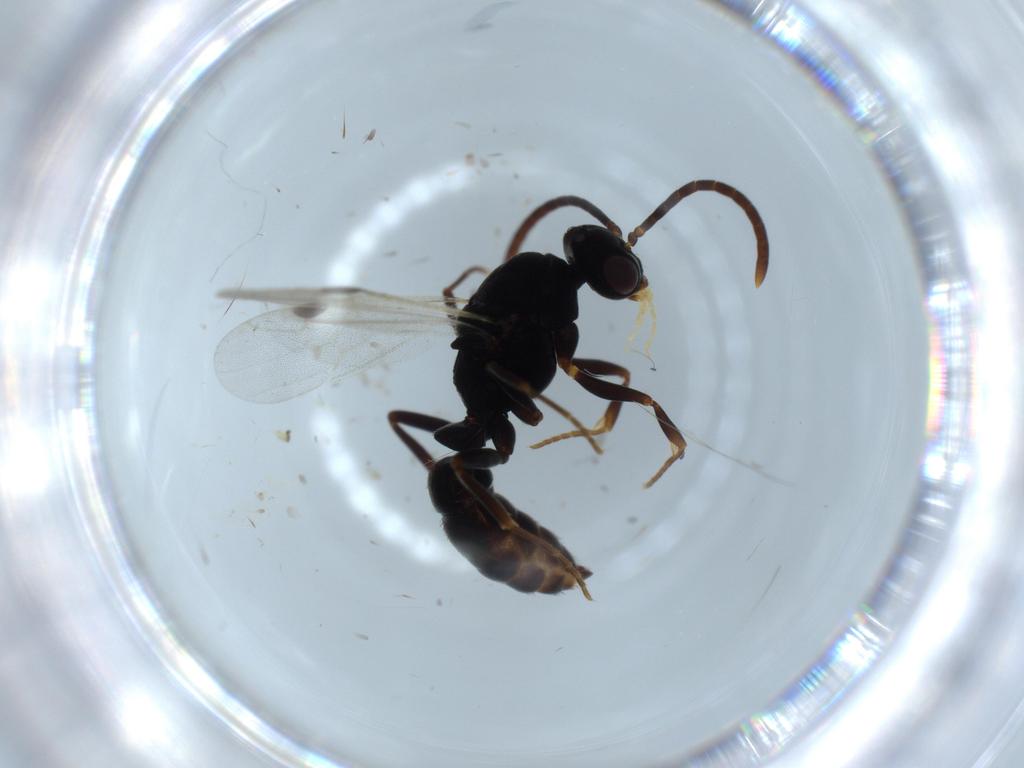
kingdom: Animalia
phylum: Arthropoda
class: Insecta
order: Hymenoptera
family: Formicidae
